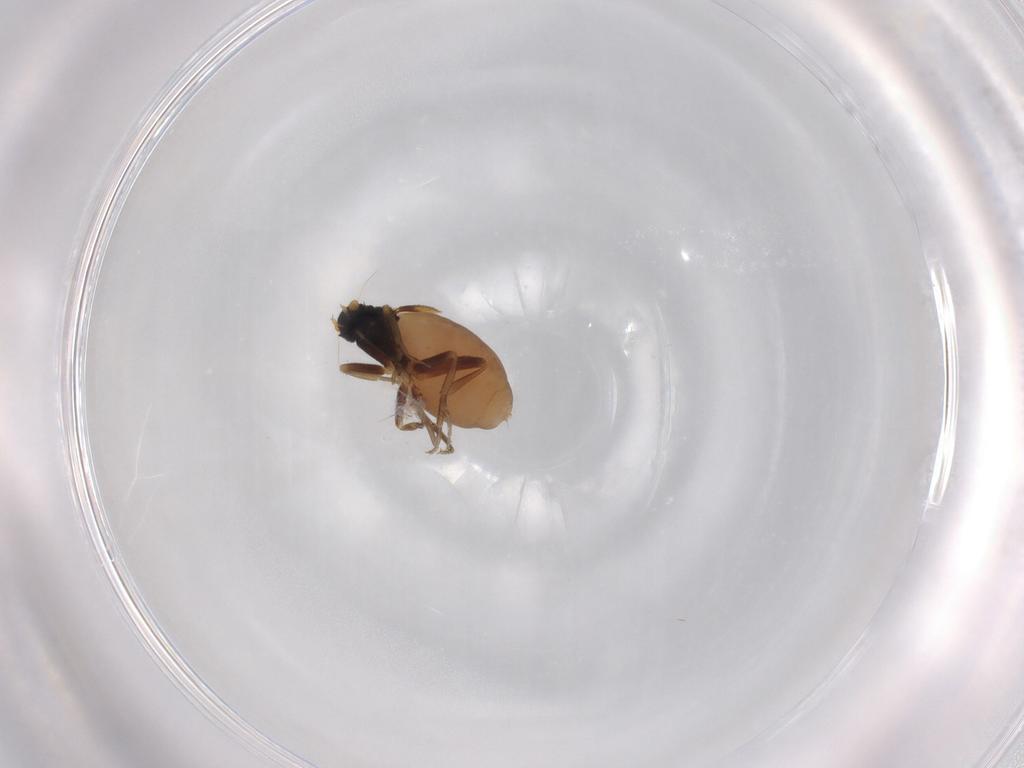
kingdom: Animalia
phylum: Arthropoda
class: Insecta
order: Diptera
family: Phoridae
